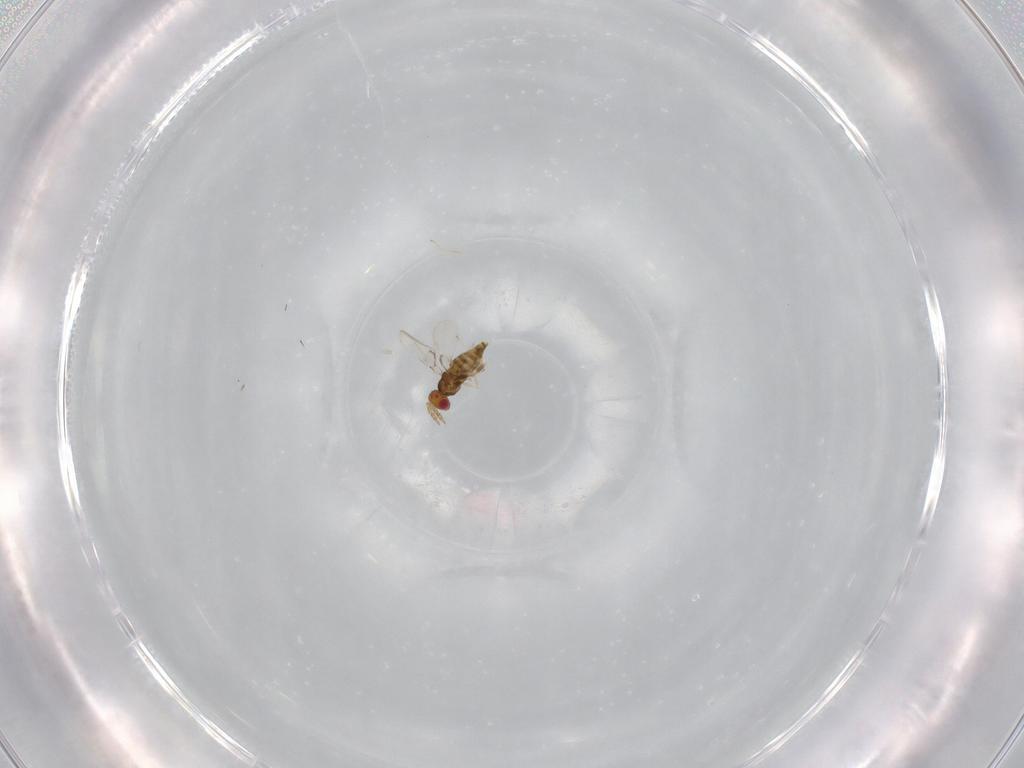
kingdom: Animalia
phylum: Arthropoda
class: Insecta
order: Hymenoptera
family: Trichogrammatidae
